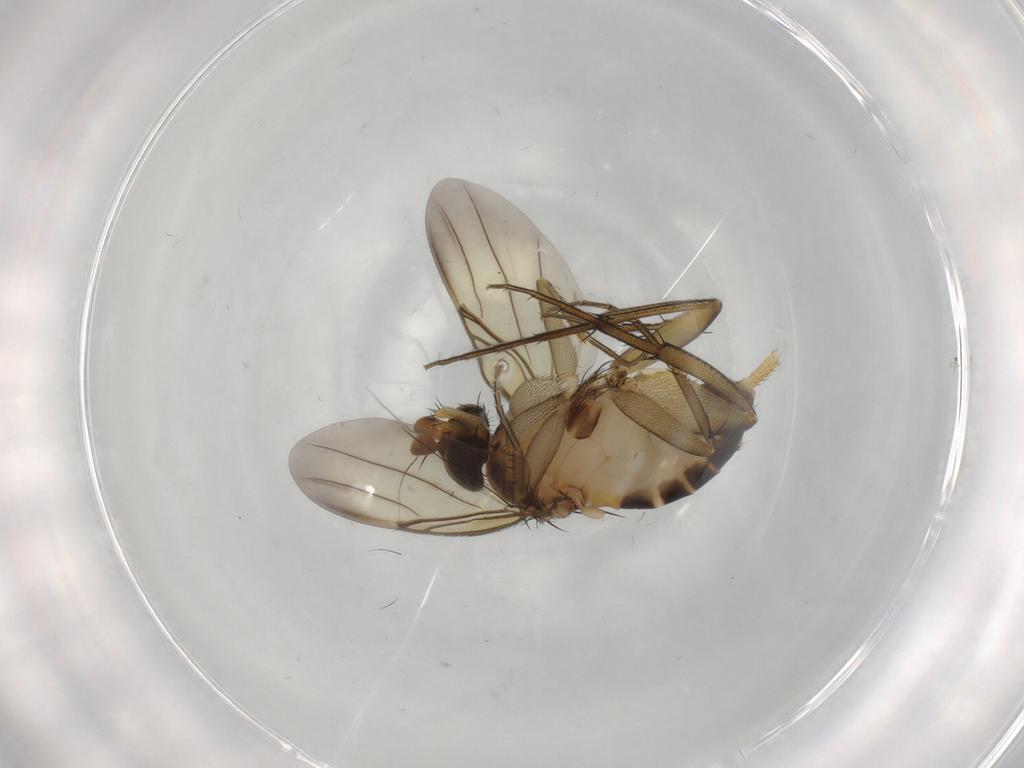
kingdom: Animalia
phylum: Arthropoda
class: Insecta
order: Diptera
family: Phoridae
